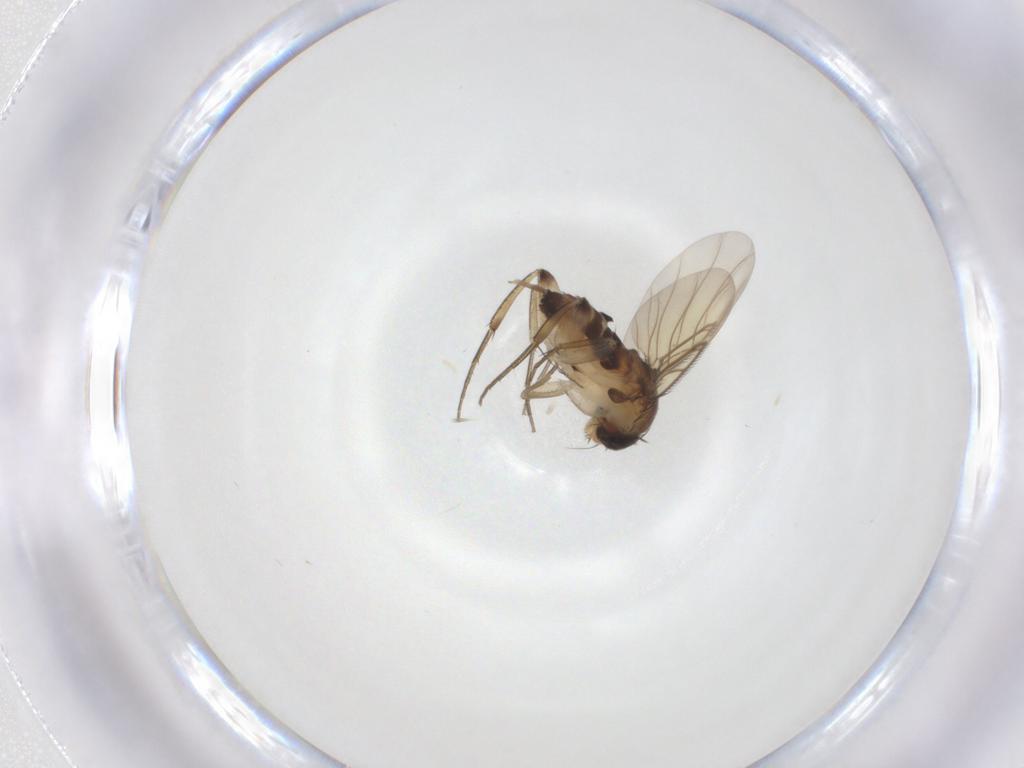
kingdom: Animalia
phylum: Arthropoda
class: Insecta
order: Diptera
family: Phoridae
